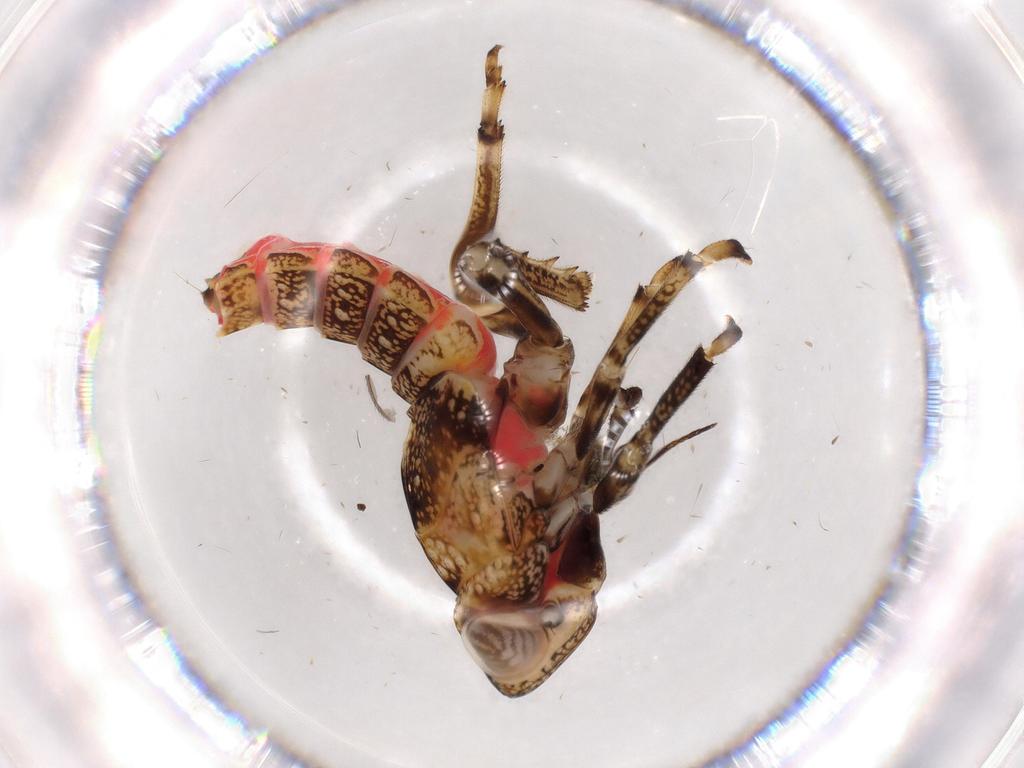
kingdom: Animalia
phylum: Arthropoda
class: Insecta
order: Hemiptera
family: Issidae
